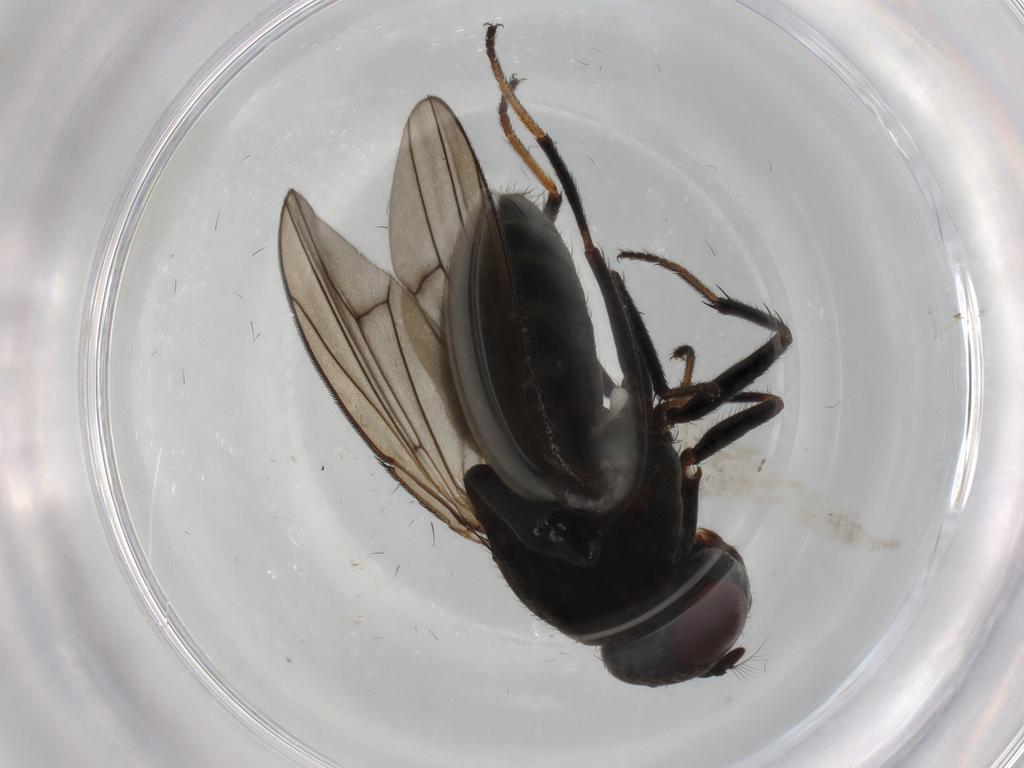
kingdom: Animalia
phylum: Arthropoda
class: Insecta
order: Diptera
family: Ephydridae
